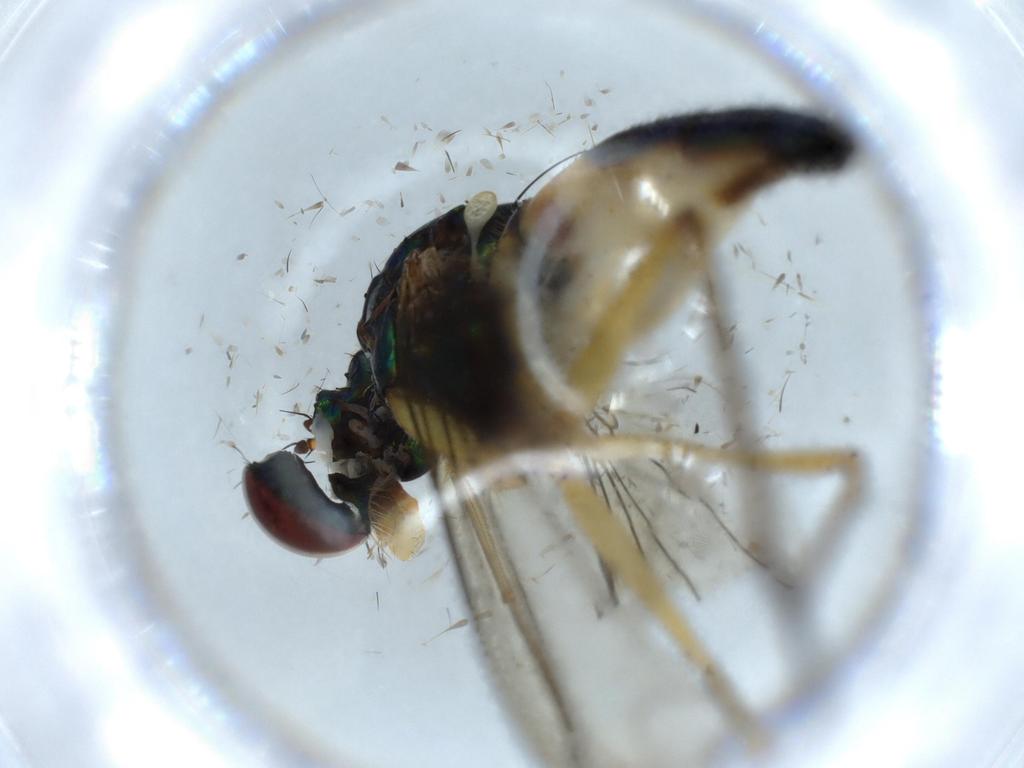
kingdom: Animalia
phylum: Arthropoda
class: Insecta
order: Diptera
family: Dolichopodidae
